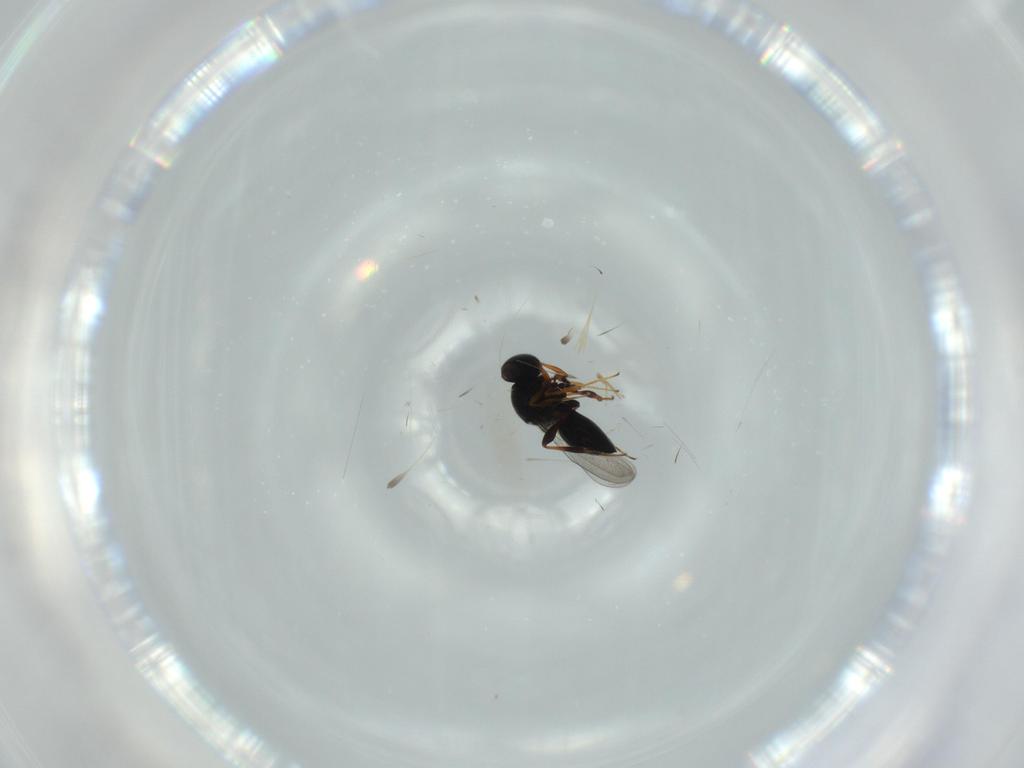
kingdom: Animalia
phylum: Arthropoda
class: Insecta
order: Hymenoptera
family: Platygastridae
